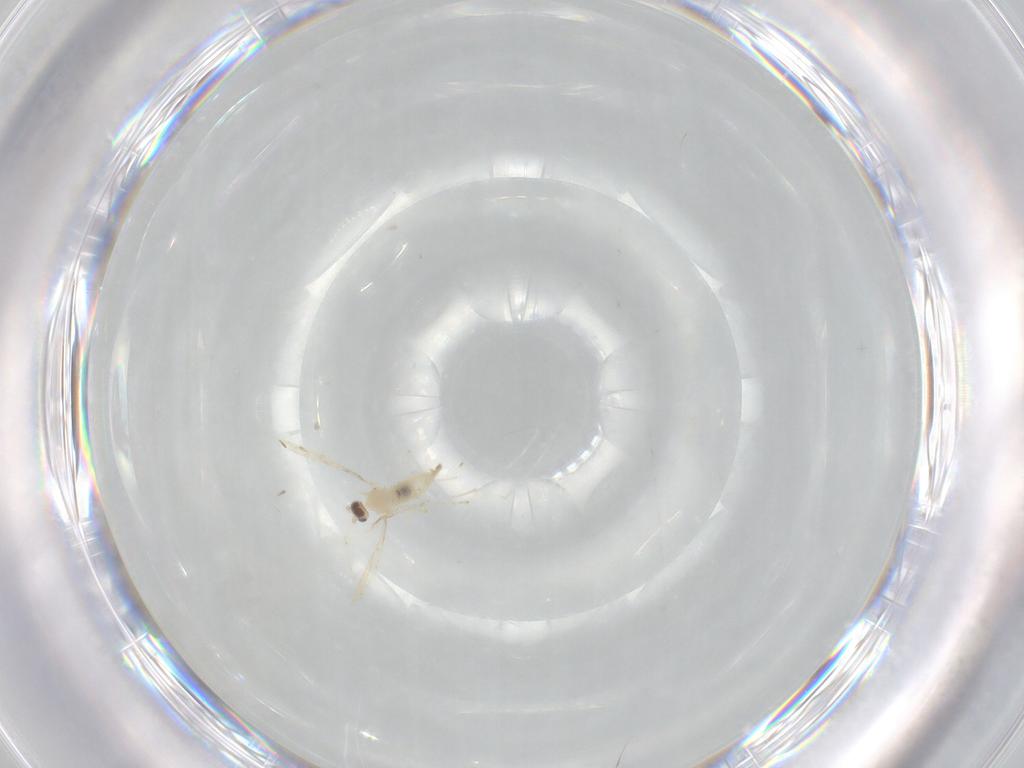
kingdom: Animalia
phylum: Arthropoda
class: Insecta
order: Diptera
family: Cecidomyiidae
